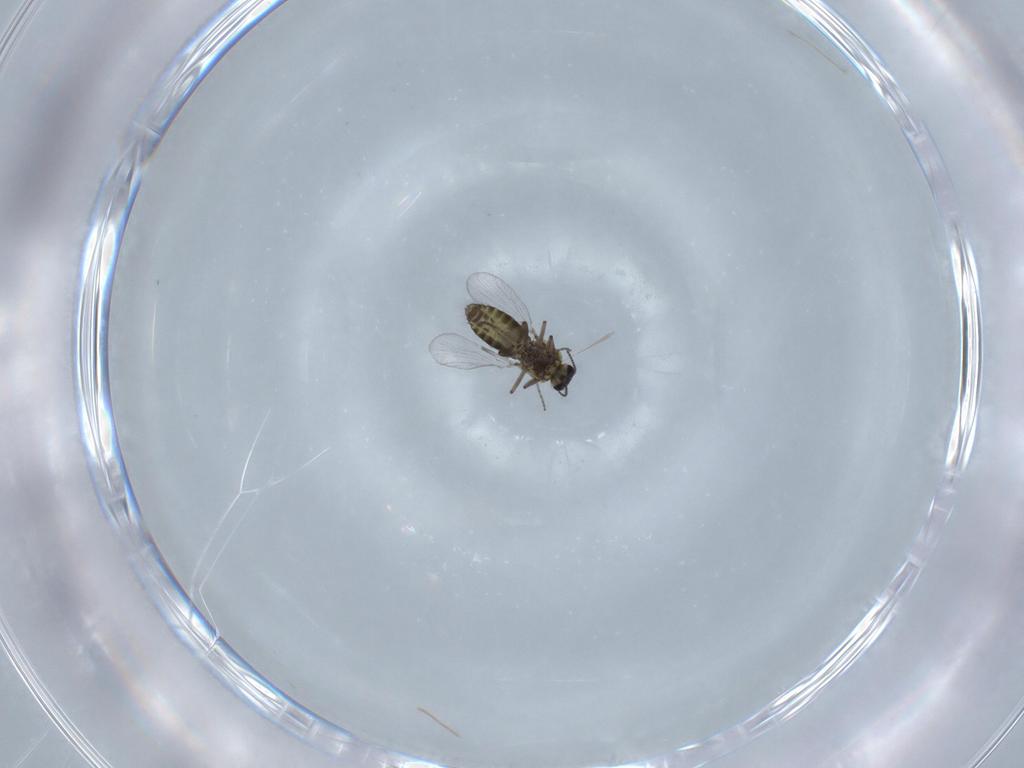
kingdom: Animalia
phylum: Arthropoda
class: Insecta
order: Diptera
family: Ceratopogonidae
